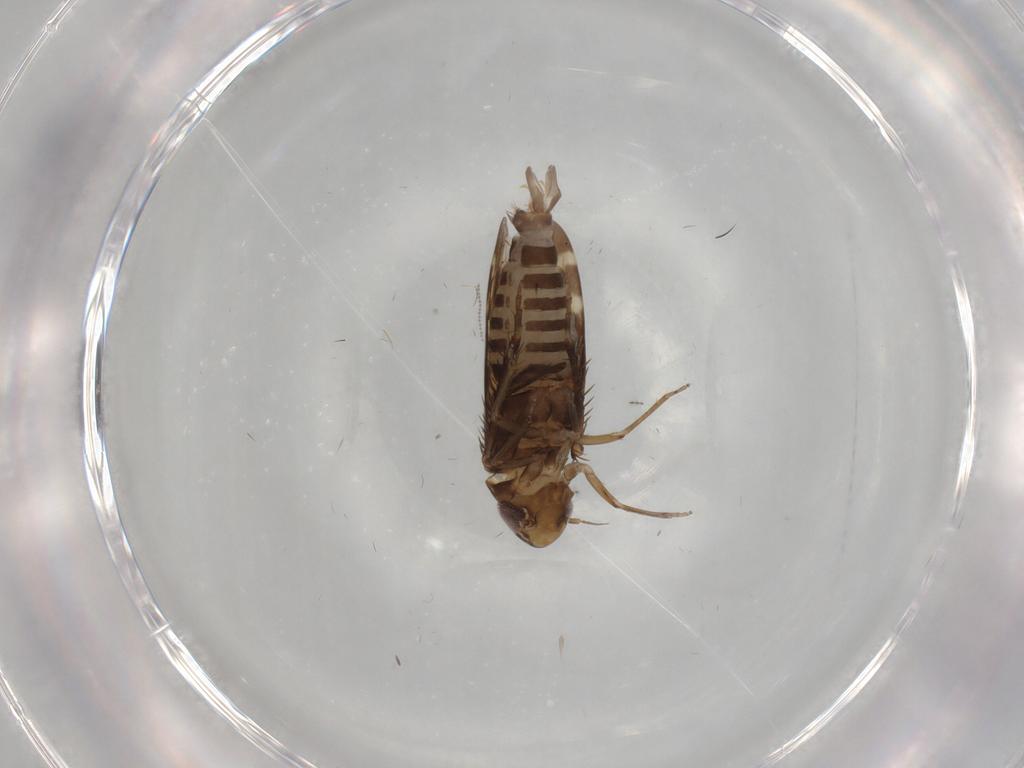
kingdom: Animalia
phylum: Arthropoda
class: Insecta
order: Hemiptera
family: Cicadellidae
